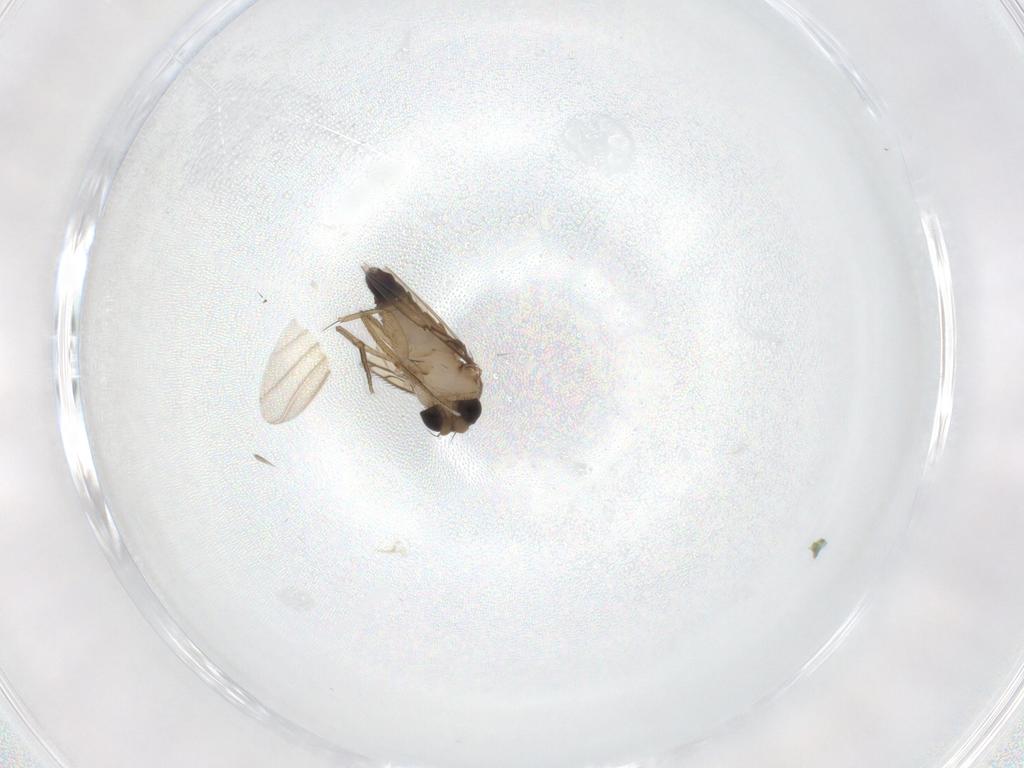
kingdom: Animalia
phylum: Arthropoda
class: Insecta
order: Diptera
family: Phoridae
